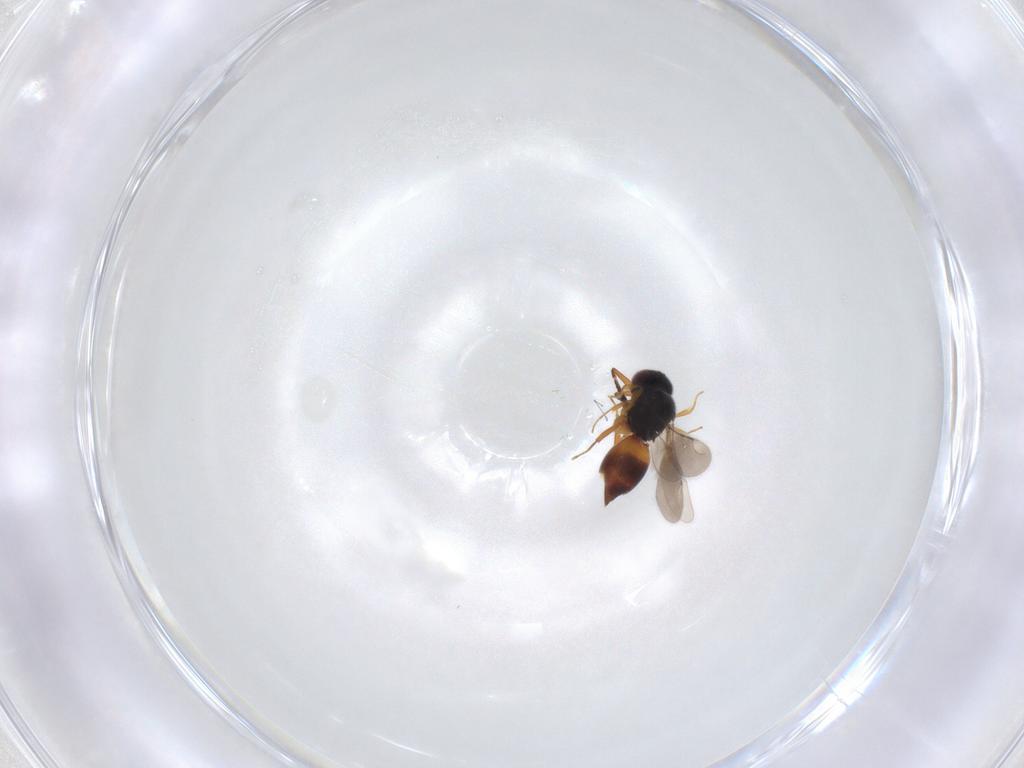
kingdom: Animalia
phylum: Arthropoda
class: Insecta
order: Hymenoptera
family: Ceraphronidae
